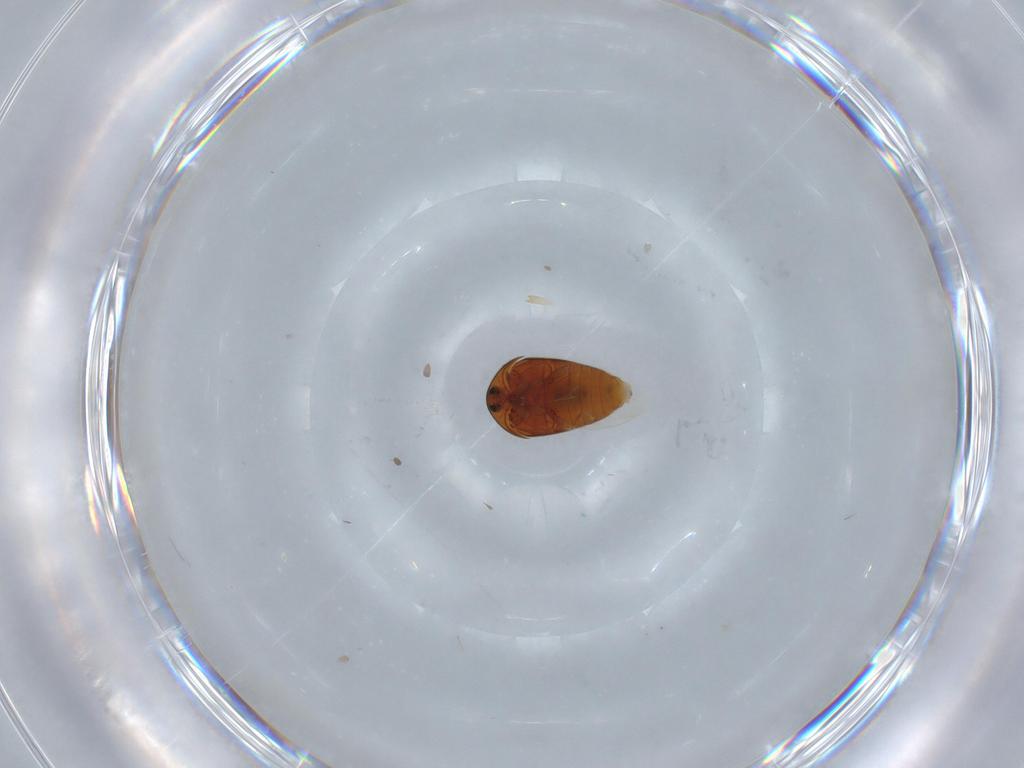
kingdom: Animalia
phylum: Arthropoda
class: Insecta
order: Coleoptera
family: Corylophidae
